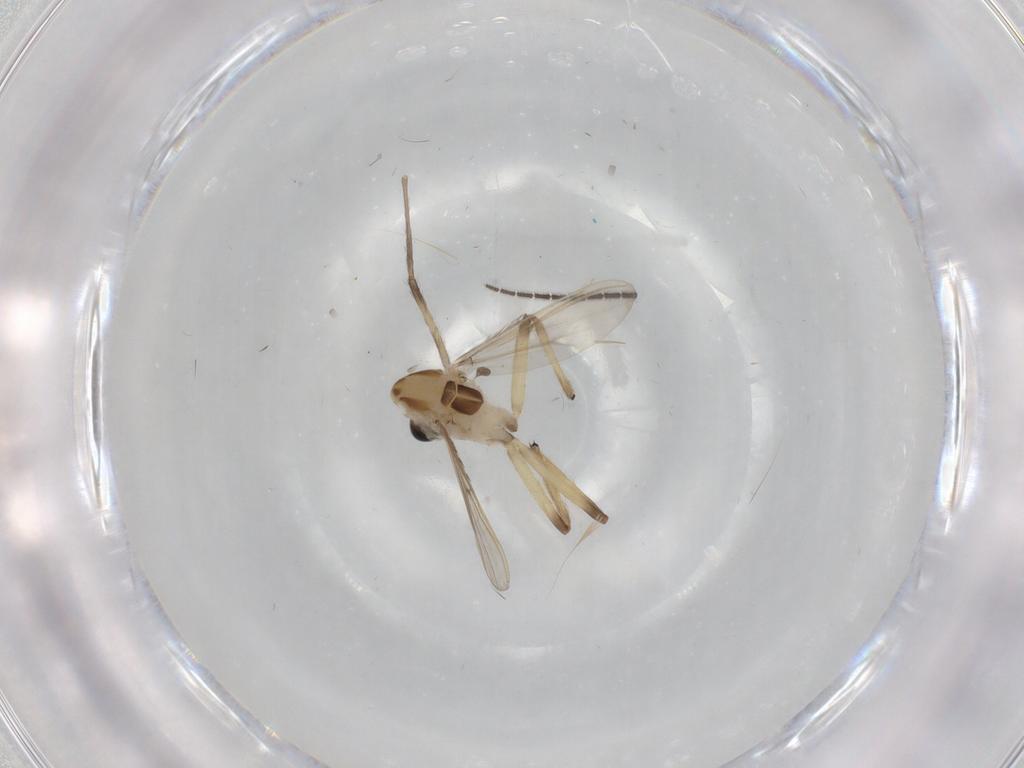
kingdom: Animalia
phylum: Arthropoda
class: Insecta
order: Diptera
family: Chironomidae
